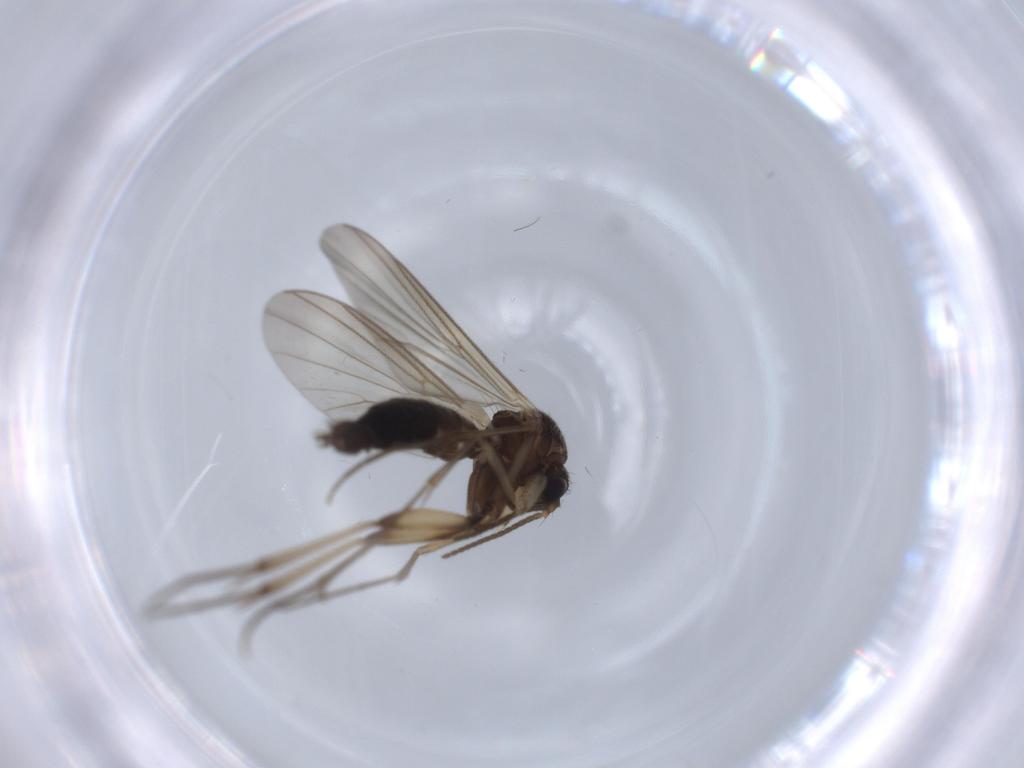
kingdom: Animalia
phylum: Arthropoda
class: Insecta
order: Diptera
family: Mycetophilidae
